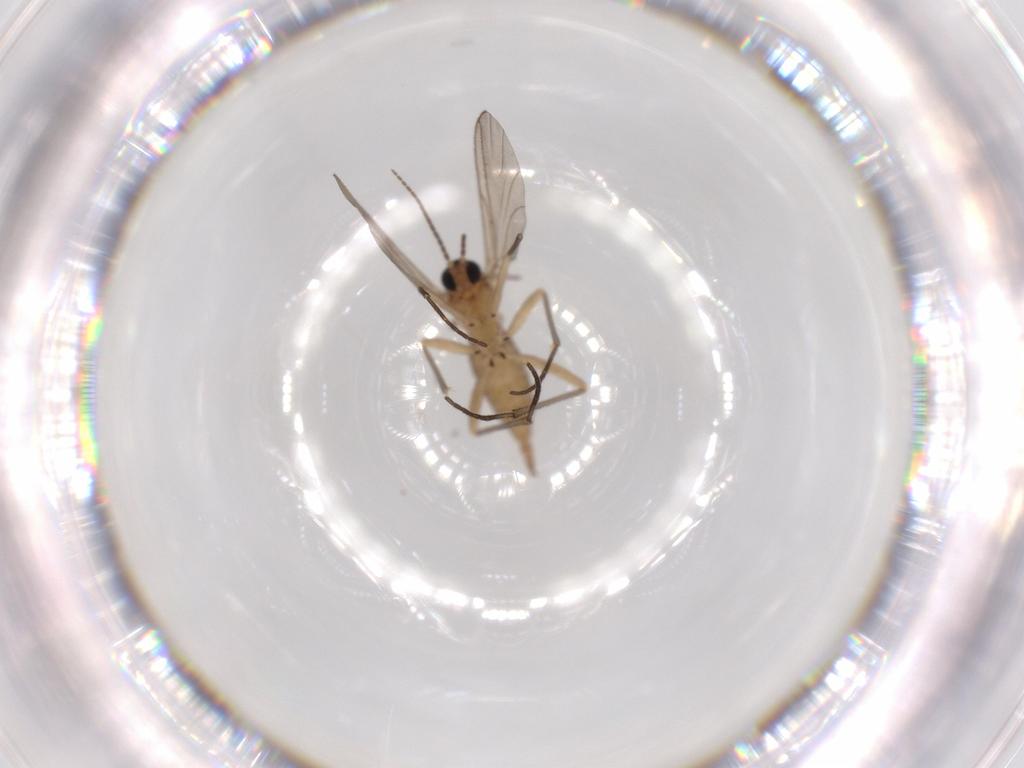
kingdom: Animalia
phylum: Arthropoda
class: Insecta
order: Diptera
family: Sciaridae
